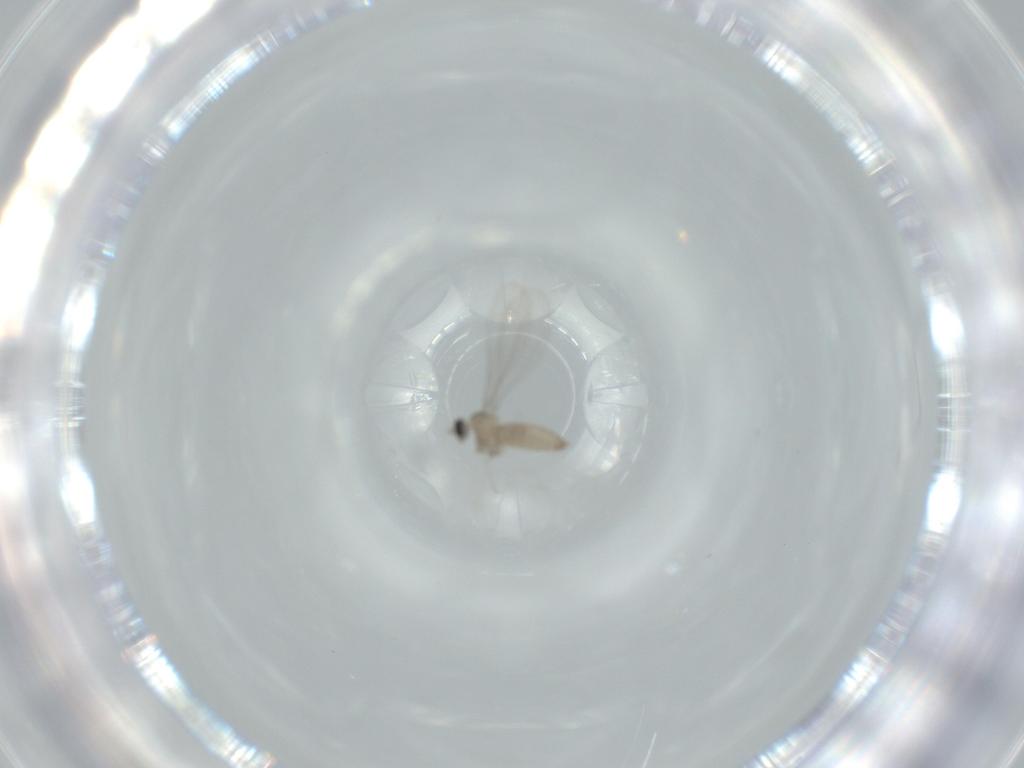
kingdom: Animalia
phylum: Arthropoda
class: Insecta
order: Diptera
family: Cecidomyiidae
